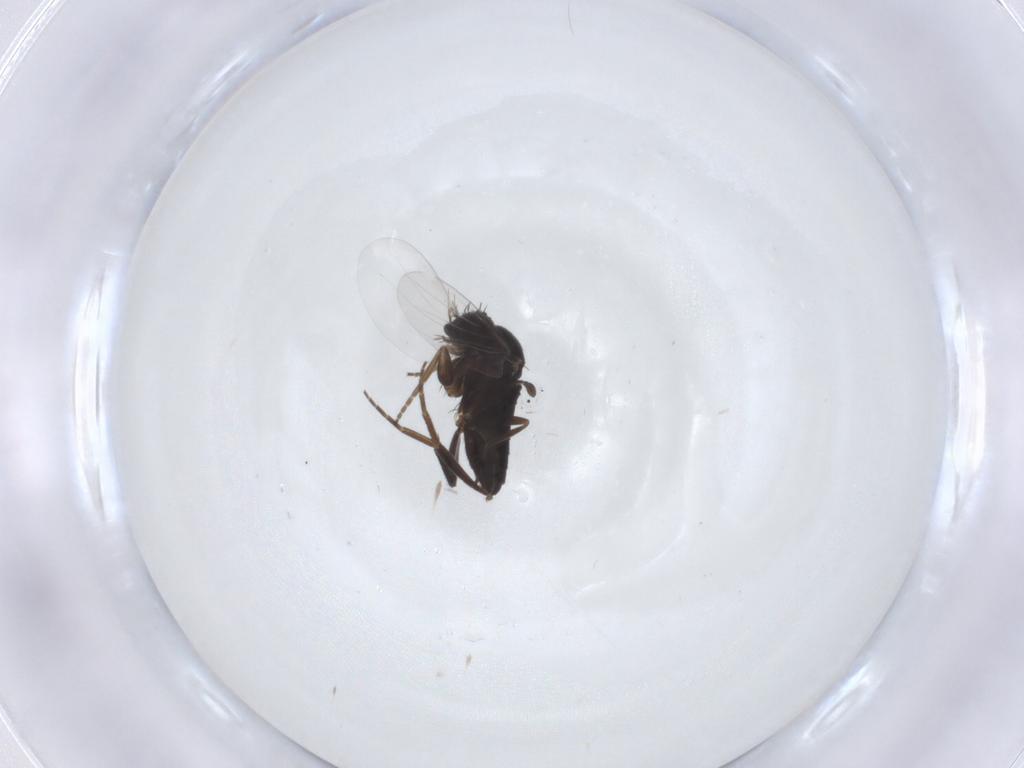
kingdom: Animalia
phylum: Arthropoda
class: Insecta
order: Diptera
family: Phoridae
